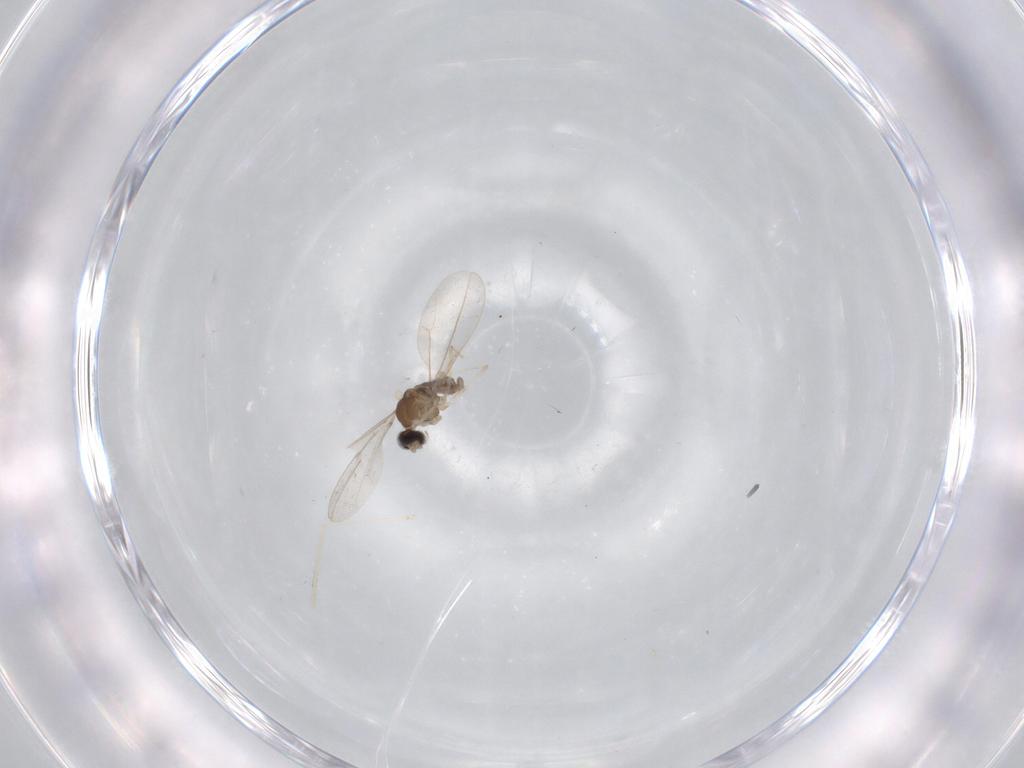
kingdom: Animalia
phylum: Arthropoda
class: Insecta
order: Diptera
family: Cecidomyiidae
